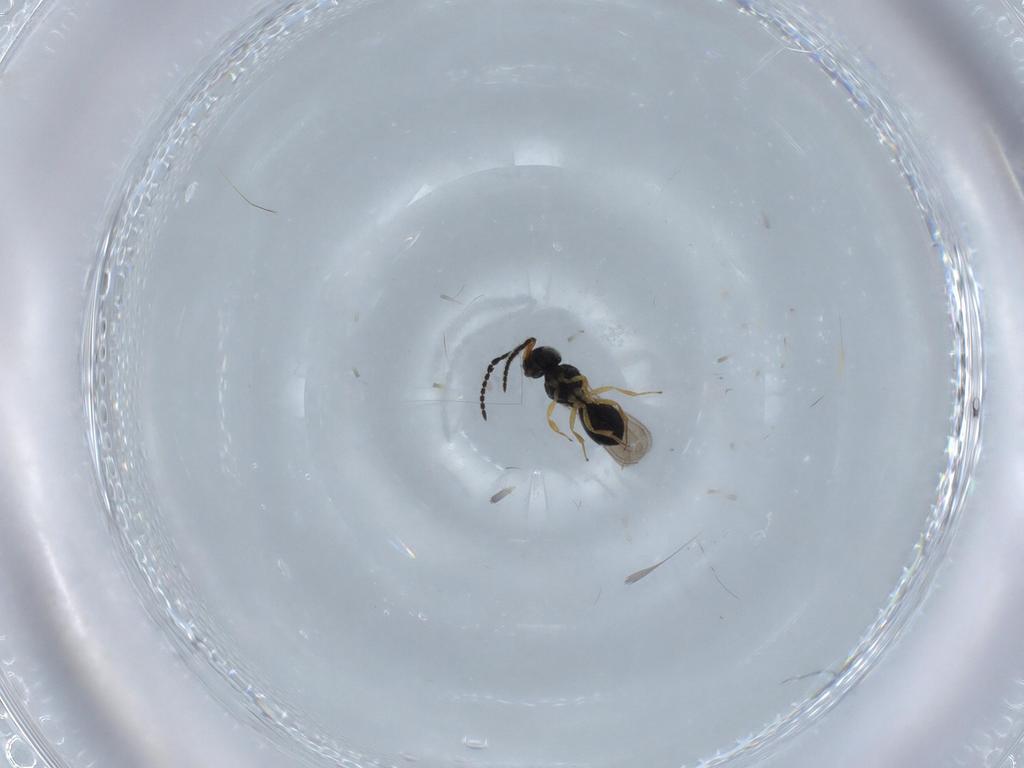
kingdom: Animalia
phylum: Arthropoda
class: Insecta
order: Hymenoptera
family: Scelionidae
